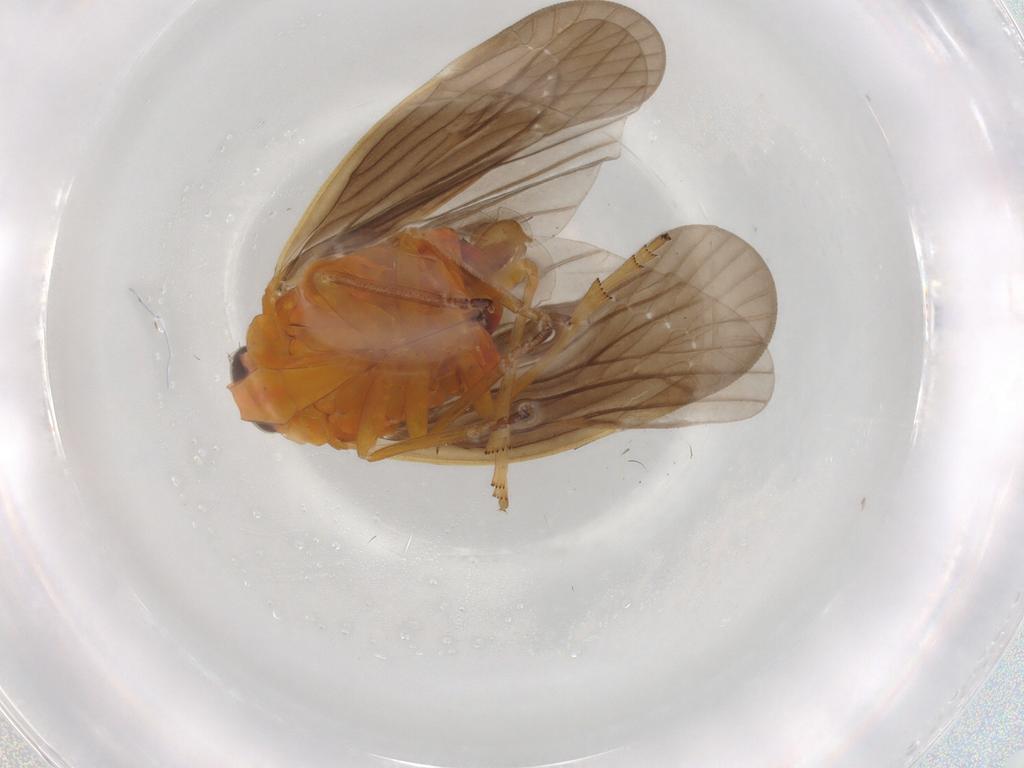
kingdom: Animalia
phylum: Arthropoda
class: Insecta
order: Hemiptera
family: Derbidae
